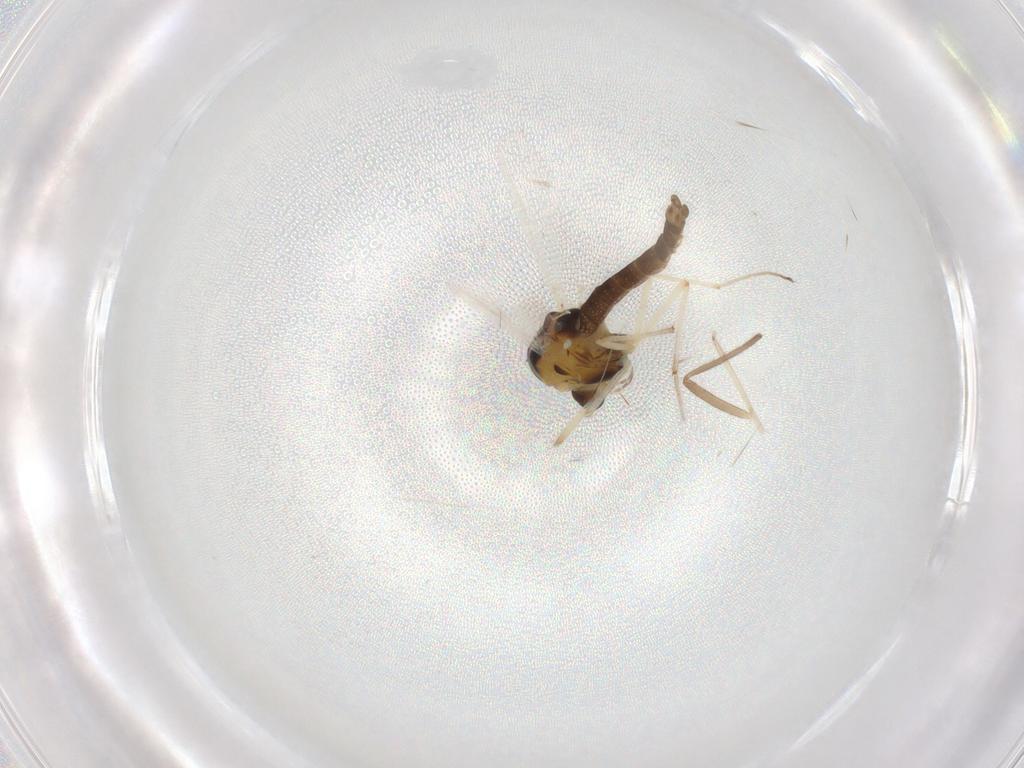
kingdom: Animalia
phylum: Arthropoda
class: Insecta
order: Diptera
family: Chironomidae
